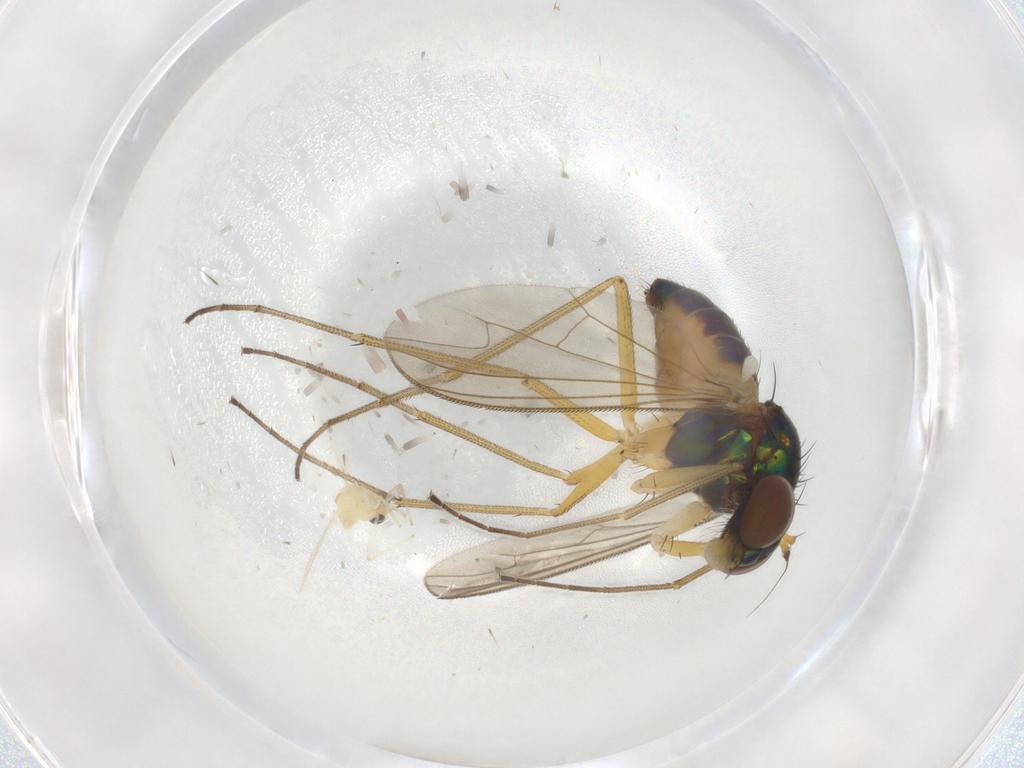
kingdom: Animalia
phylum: Arthropoda
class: Insecta
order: Diptera
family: Dolichopodidae
